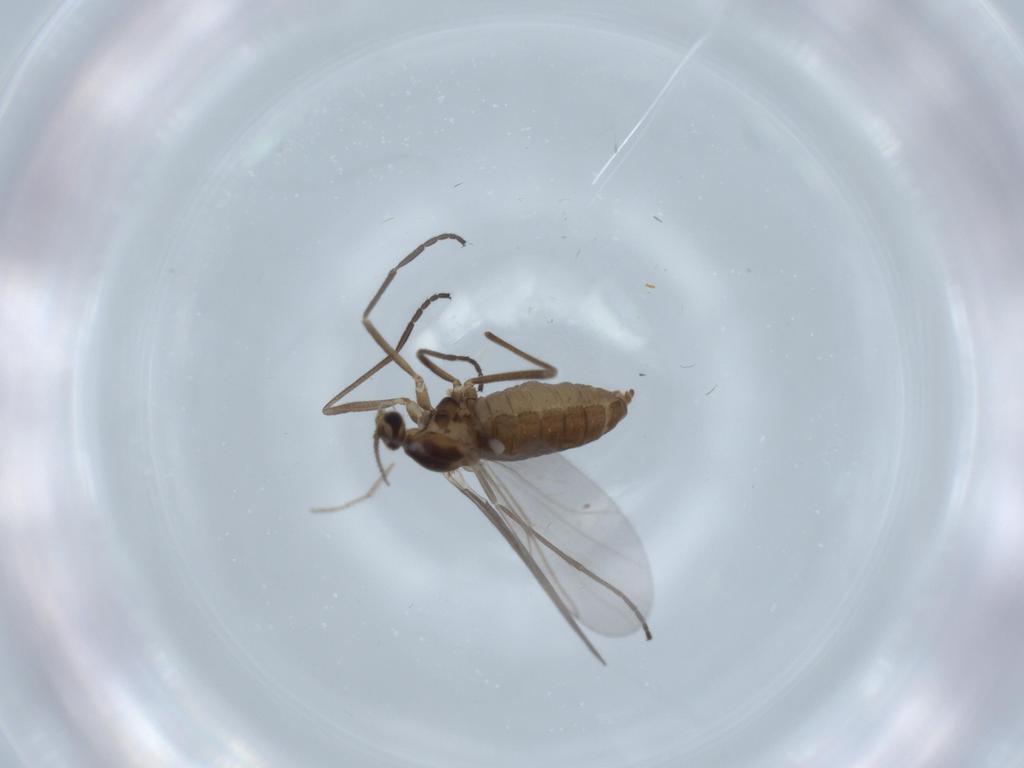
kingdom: Animalia
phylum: Arthropoda
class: Insecta
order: Diptera
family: Cecidomyiidae
